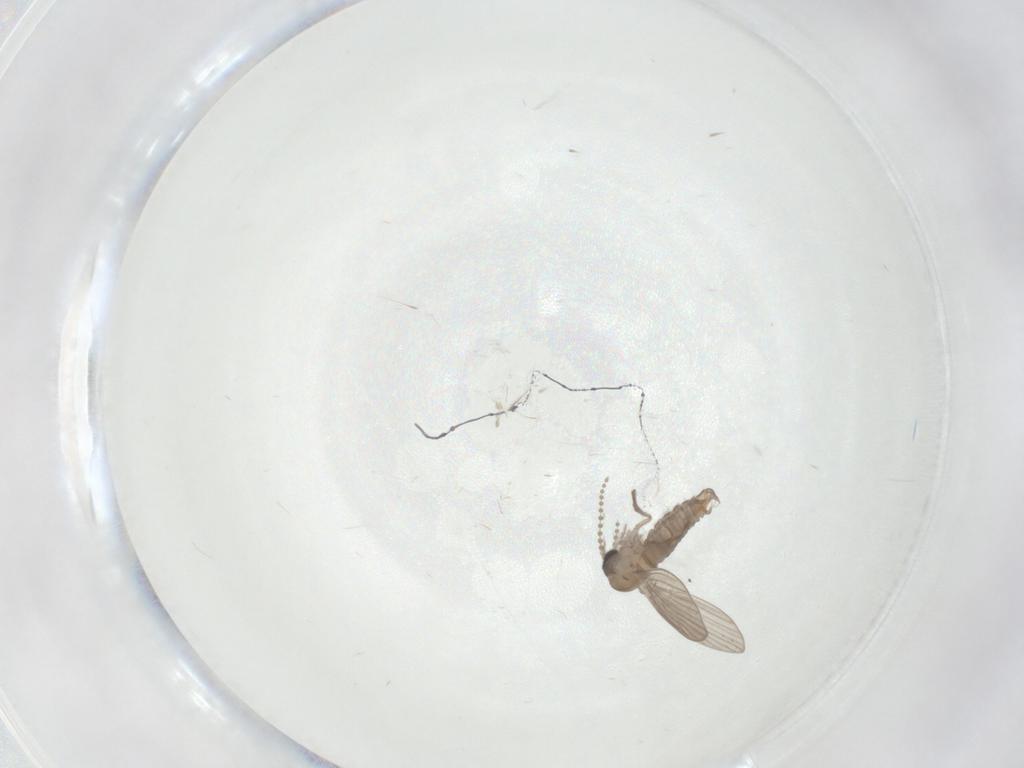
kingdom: Animalia
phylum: Arthropoda
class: Insecta
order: Diptera
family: Psychodidae
